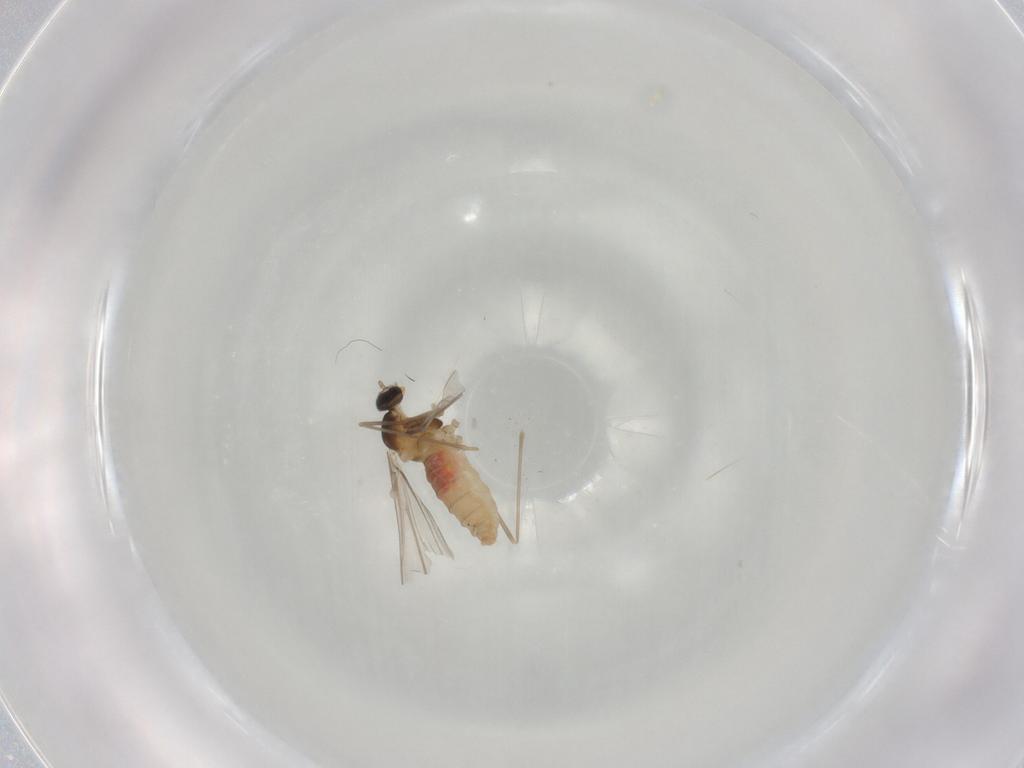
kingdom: Animalia
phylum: Arthropoda
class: Insecta
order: Diptera
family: Cecidomyiidae
